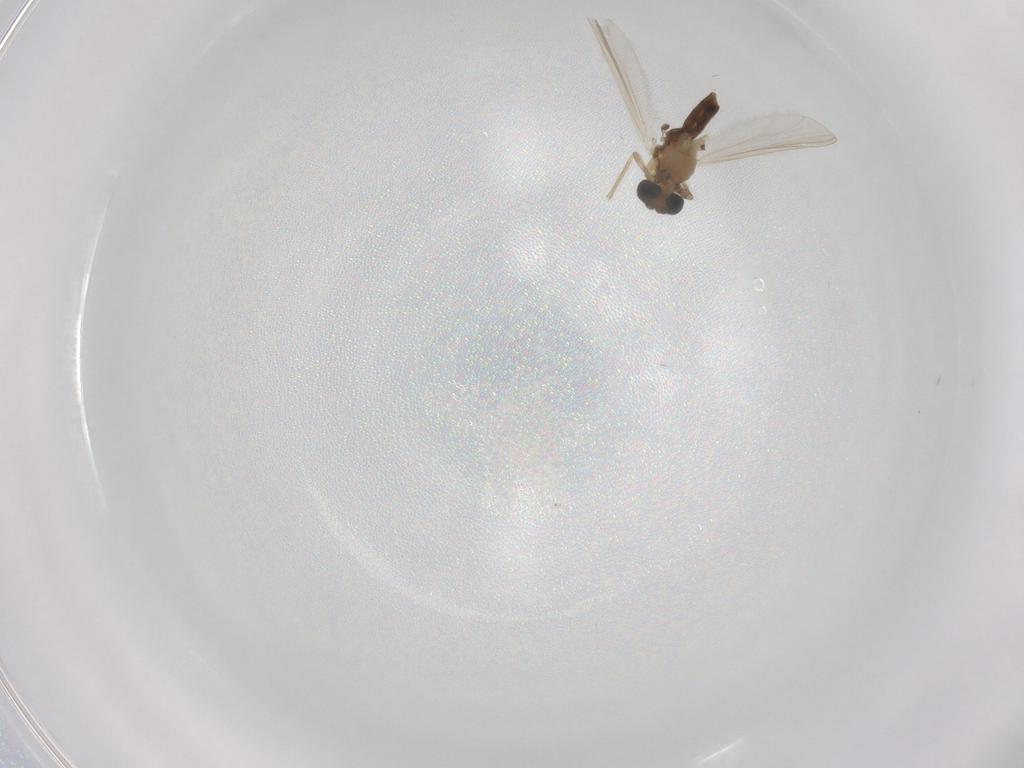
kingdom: Animalia
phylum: Arthropoda
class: Insecta
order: Diptera
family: Chironomidae
